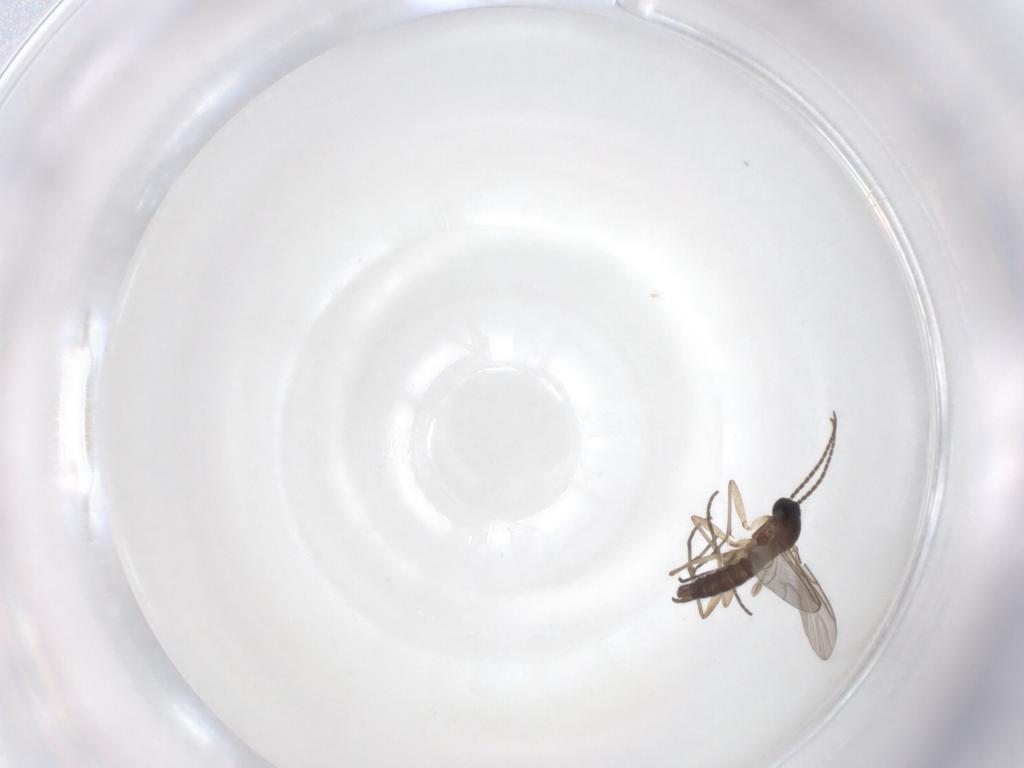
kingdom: Animalia
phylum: Arthropoda
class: Insecta
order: Diptera
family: Sciaridae
